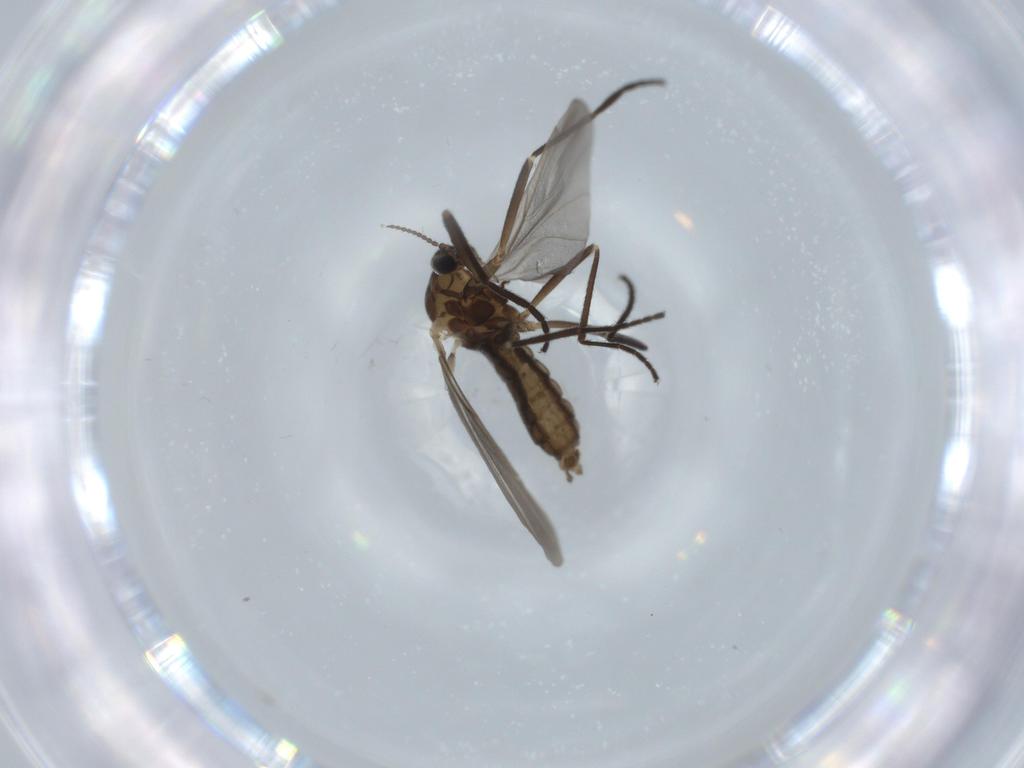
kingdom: Animalia
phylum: Arthropoda
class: Insecta
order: Diptera
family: Cecidomyiidae
